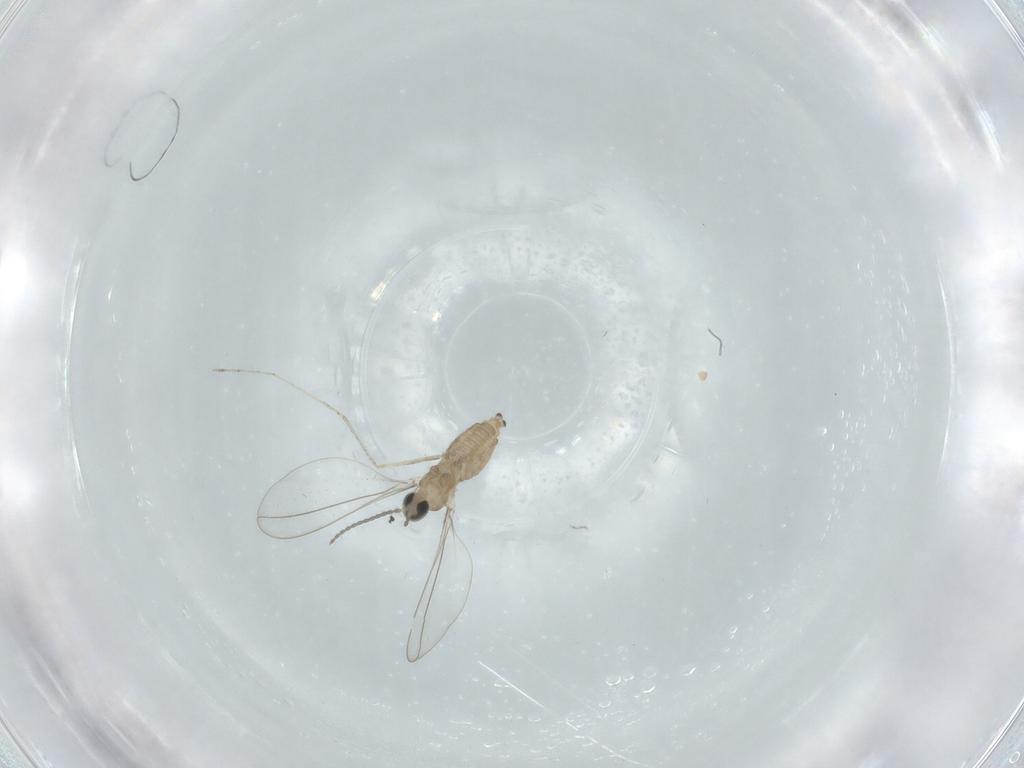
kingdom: Animalia
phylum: Arthropoda
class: Insecta
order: Diptera
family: Cecidomyiidae
